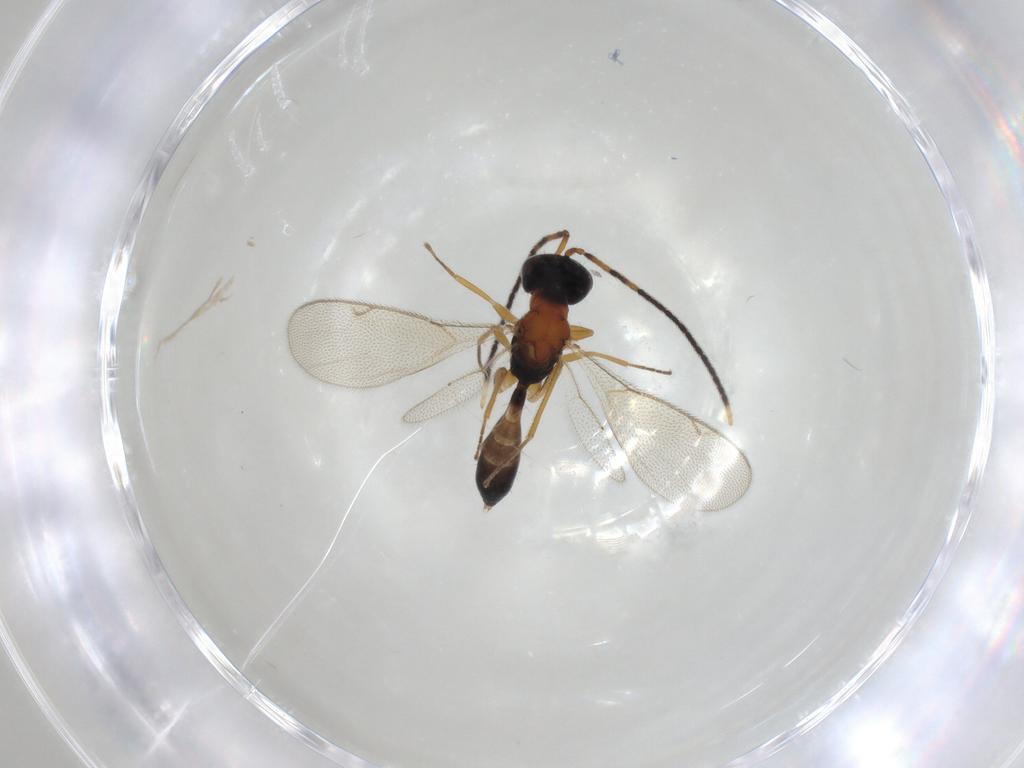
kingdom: Animalia
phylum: Arthropoda
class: Insecta
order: Hymenoptera
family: Pteromalidae
